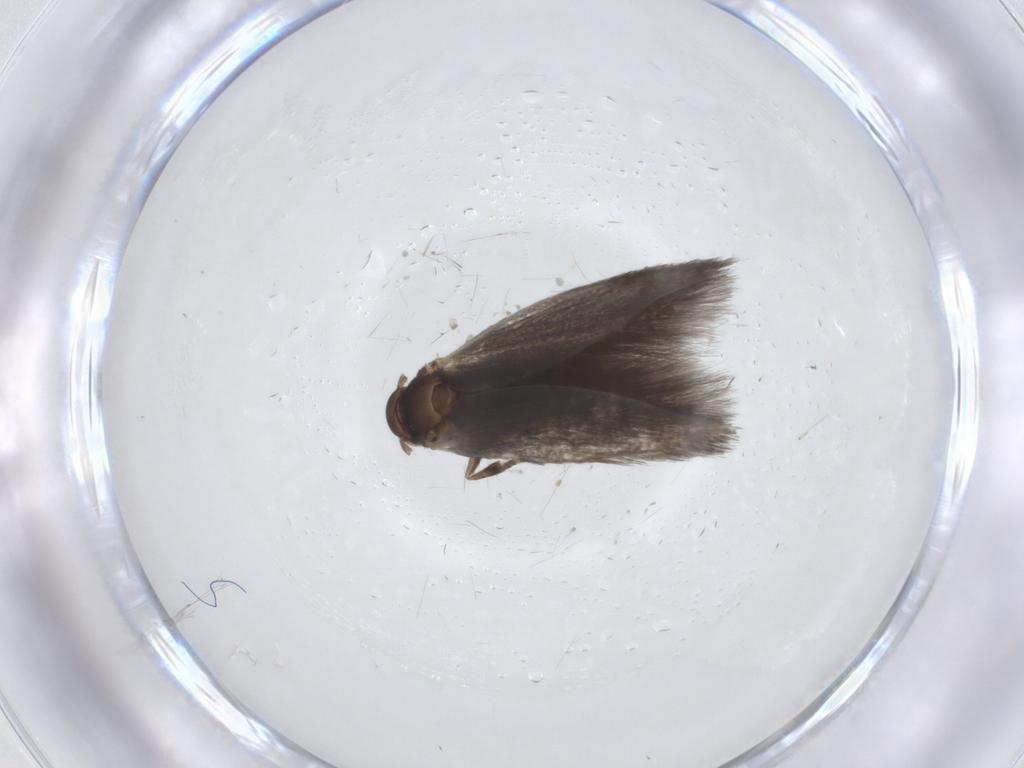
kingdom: Animalia
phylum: Arthropoda
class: Insecta
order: Lepidoptera
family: Elachistidae
